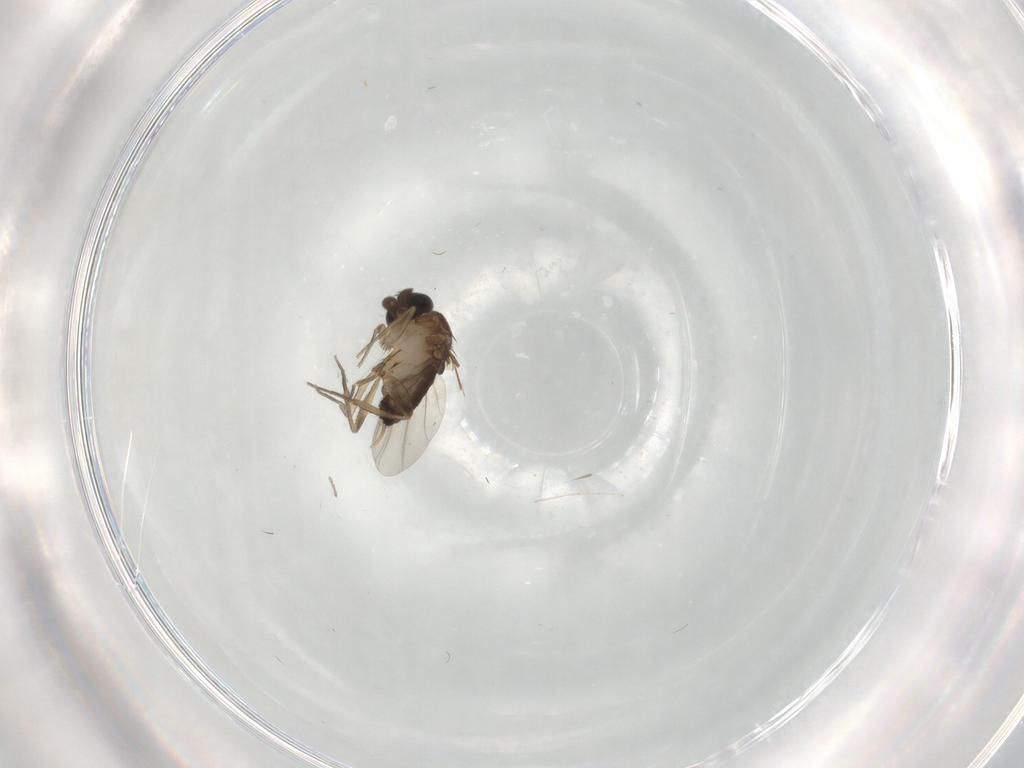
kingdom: Animalia
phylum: Arthropoda
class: Insecta
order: Diptera
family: Phoridae
